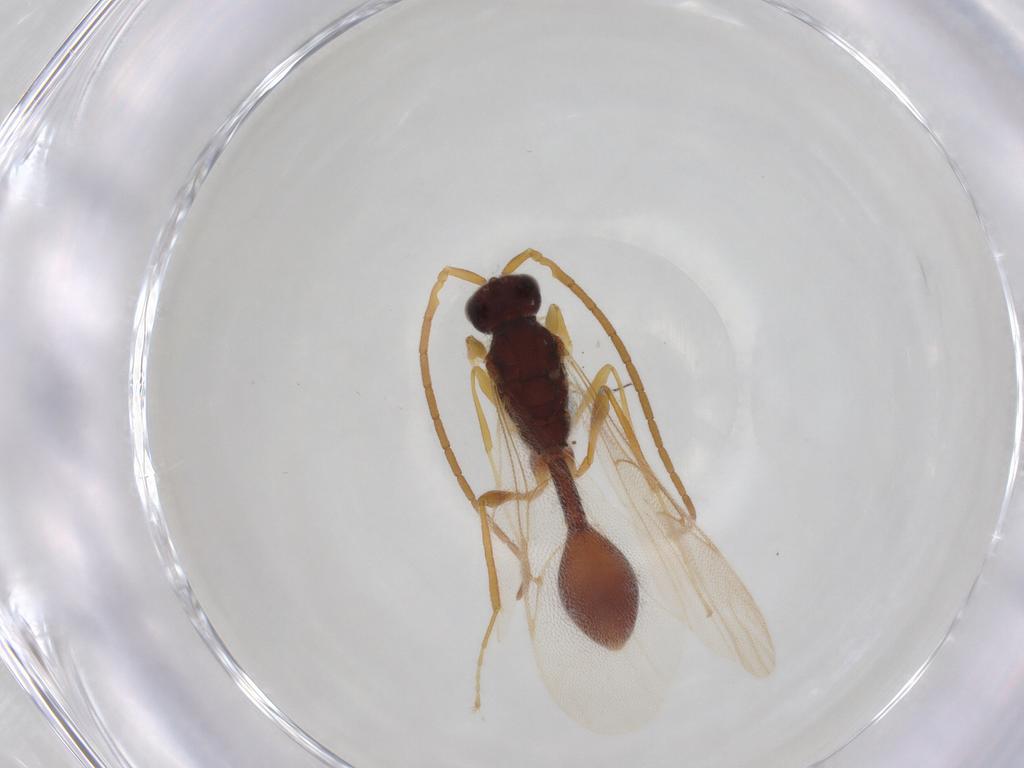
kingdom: Animalia
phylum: Arthropoda
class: Insecta
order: Hymenoptera
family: Diapriidae
